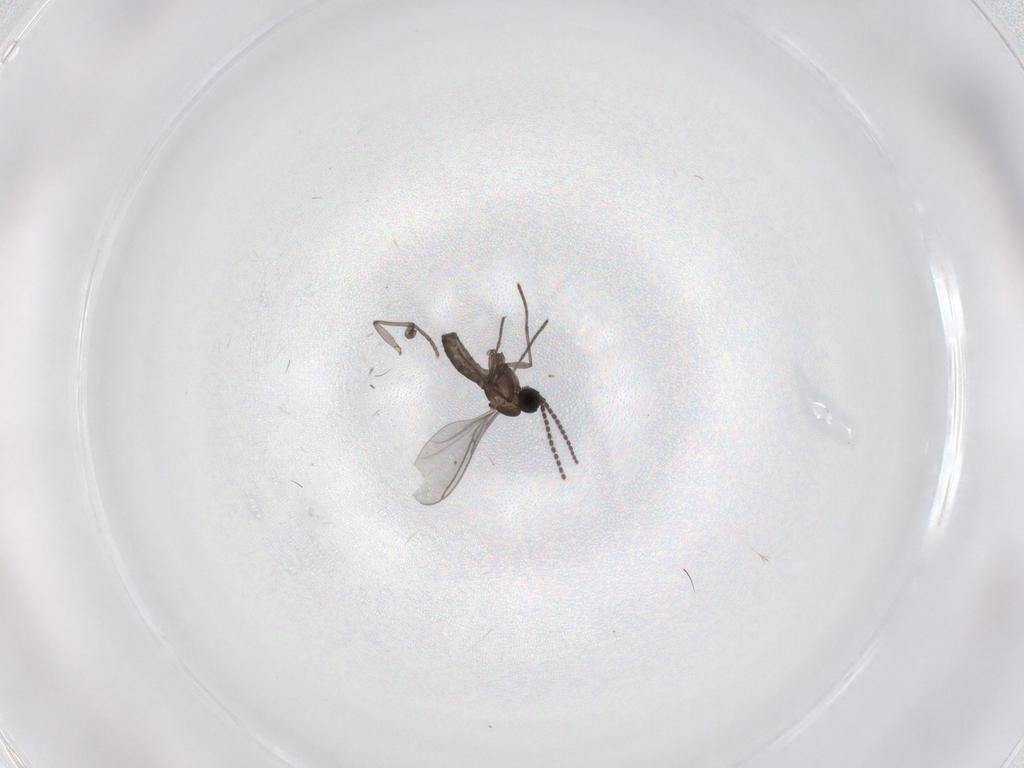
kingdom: Animalia
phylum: Arthropoda
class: Insecta
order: Diptera
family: Sciaridae
